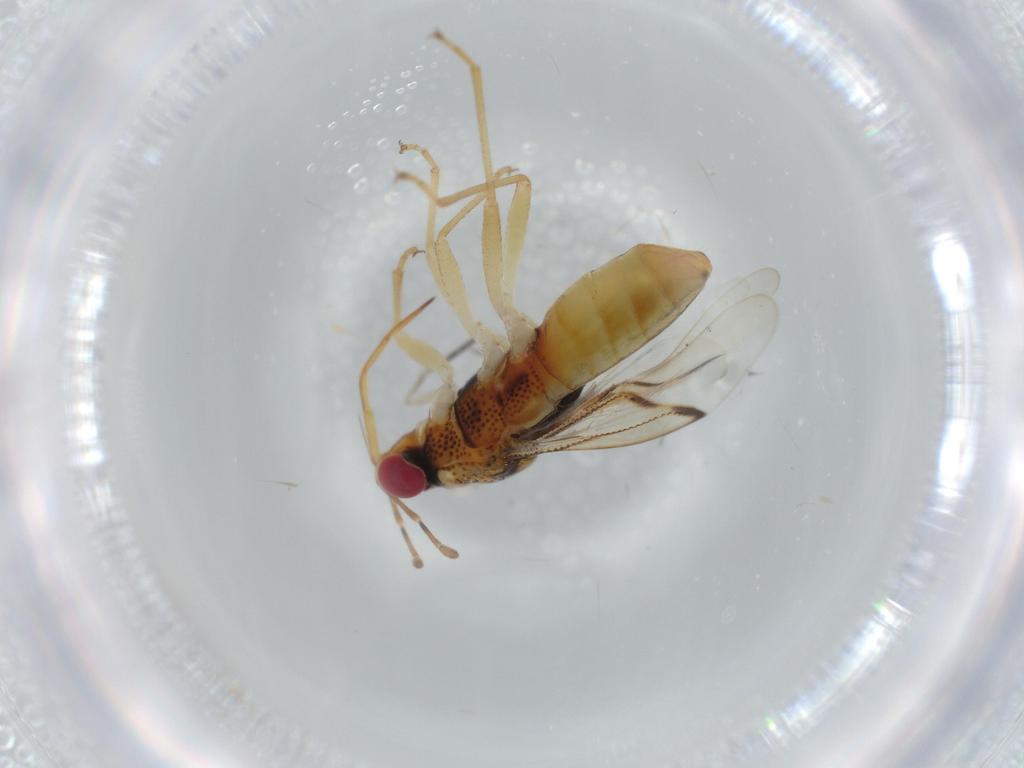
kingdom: Animalia
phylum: Arthropoda
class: Insecta
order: Hemiptera
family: Geocoridae
